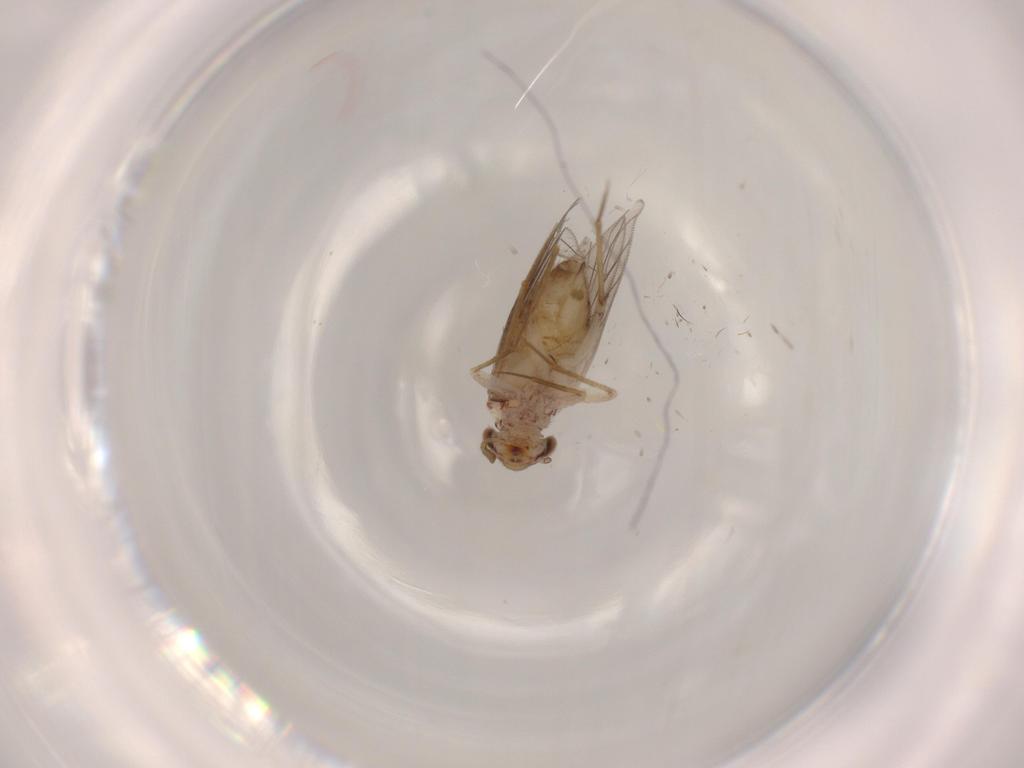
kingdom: Animalia
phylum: Arthropoda
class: Insecta
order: Psocodea
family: Lepidopsocidae
